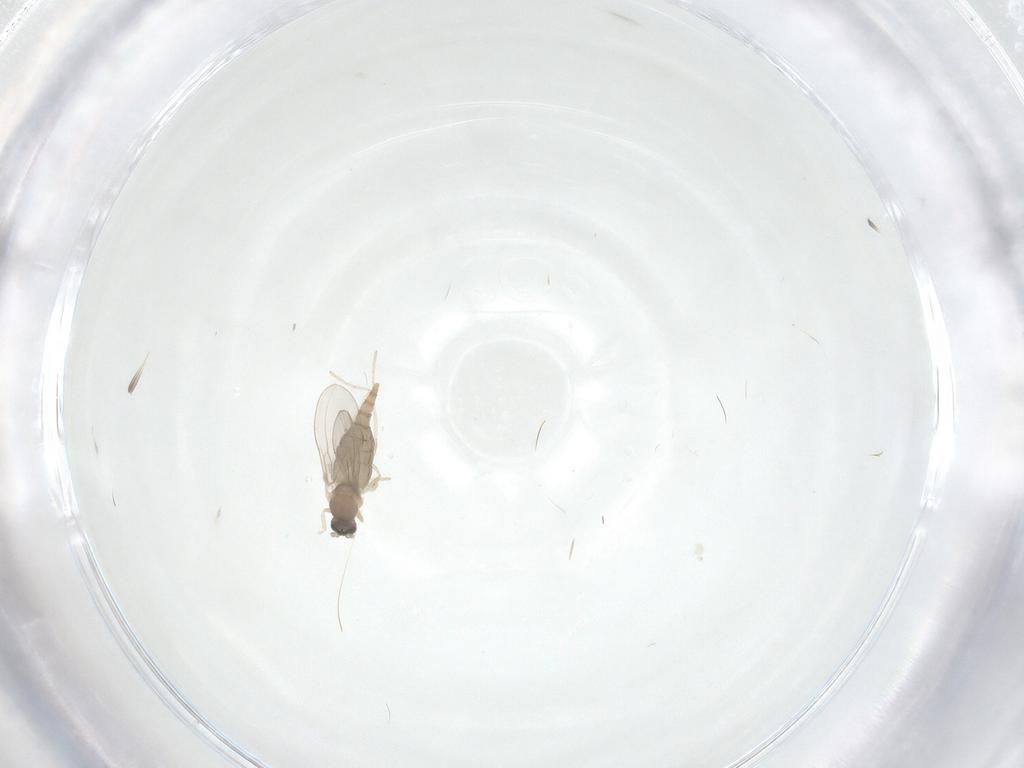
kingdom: Animalia
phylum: Arthropoda
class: Insecta
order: Diptera
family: Cecidomyiidae
